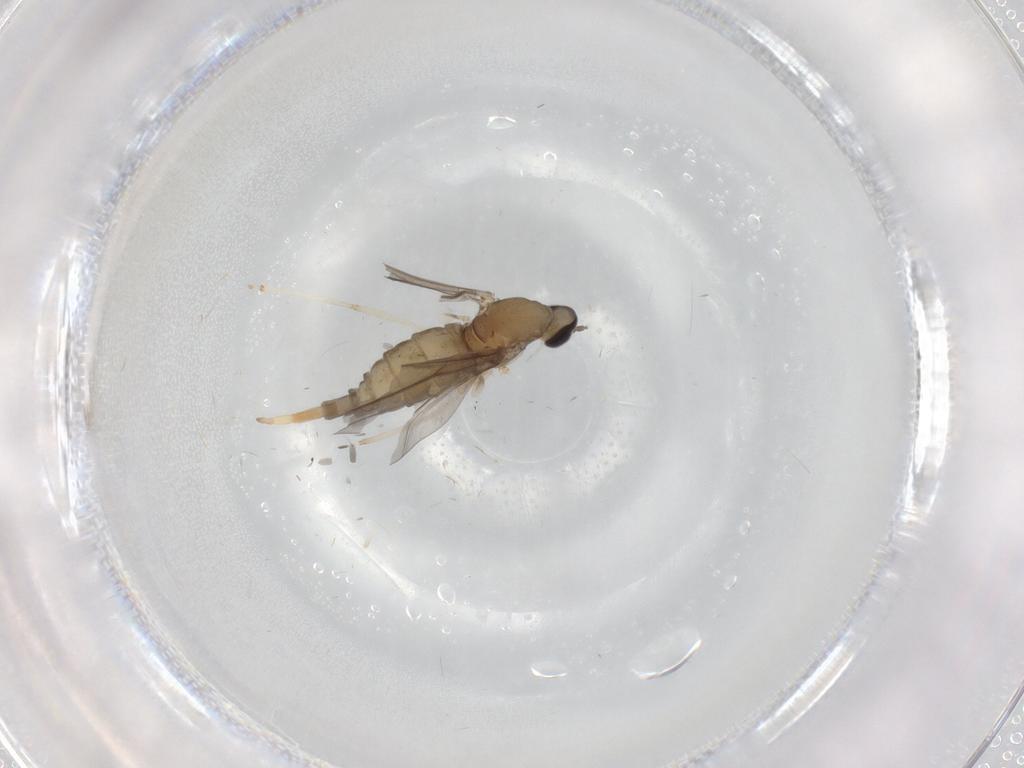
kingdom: Animalia
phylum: Arthropoda
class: Insecta
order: Diptera
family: Cecidomyiidae
